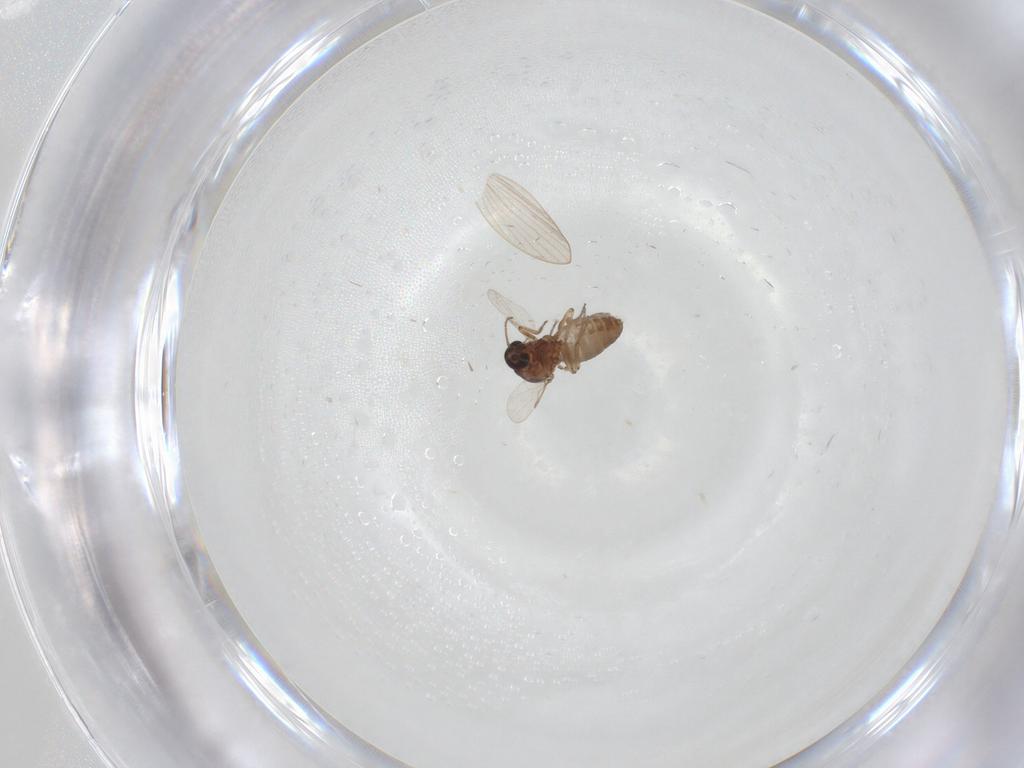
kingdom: Animalia
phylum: Arthropoda
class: Insecta
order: Diptera
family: Ceratopogonidae
